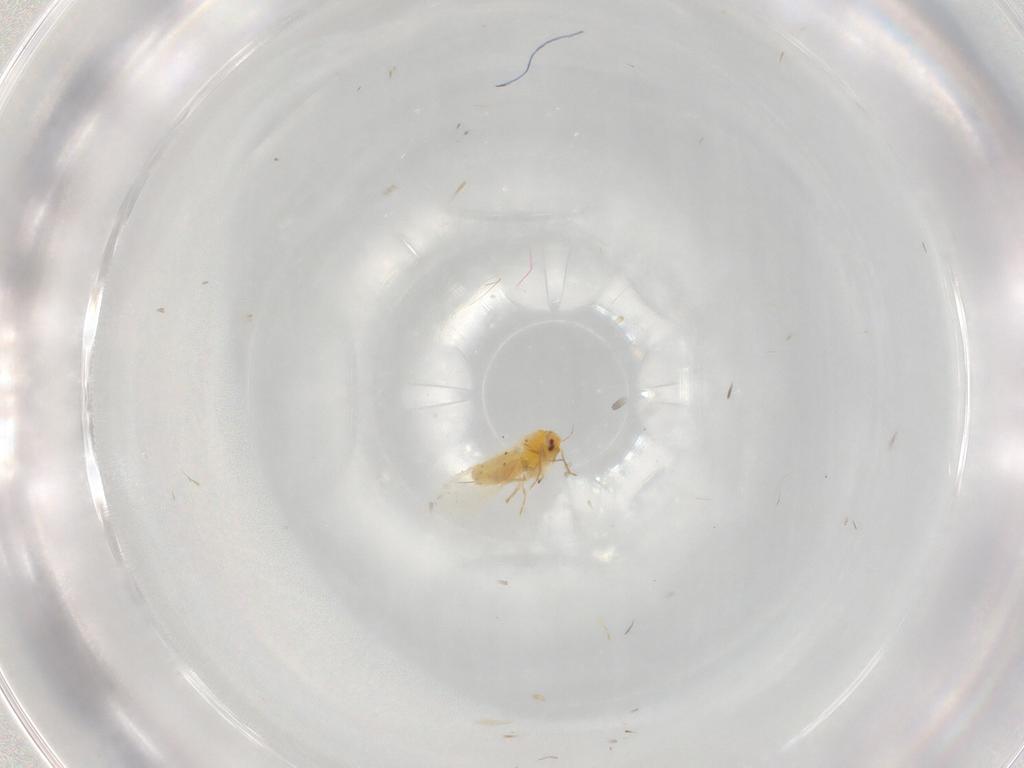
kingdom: Animalia
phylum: Arthropoda
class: Insecta
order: Hemiptera
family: Aleyrodidae
